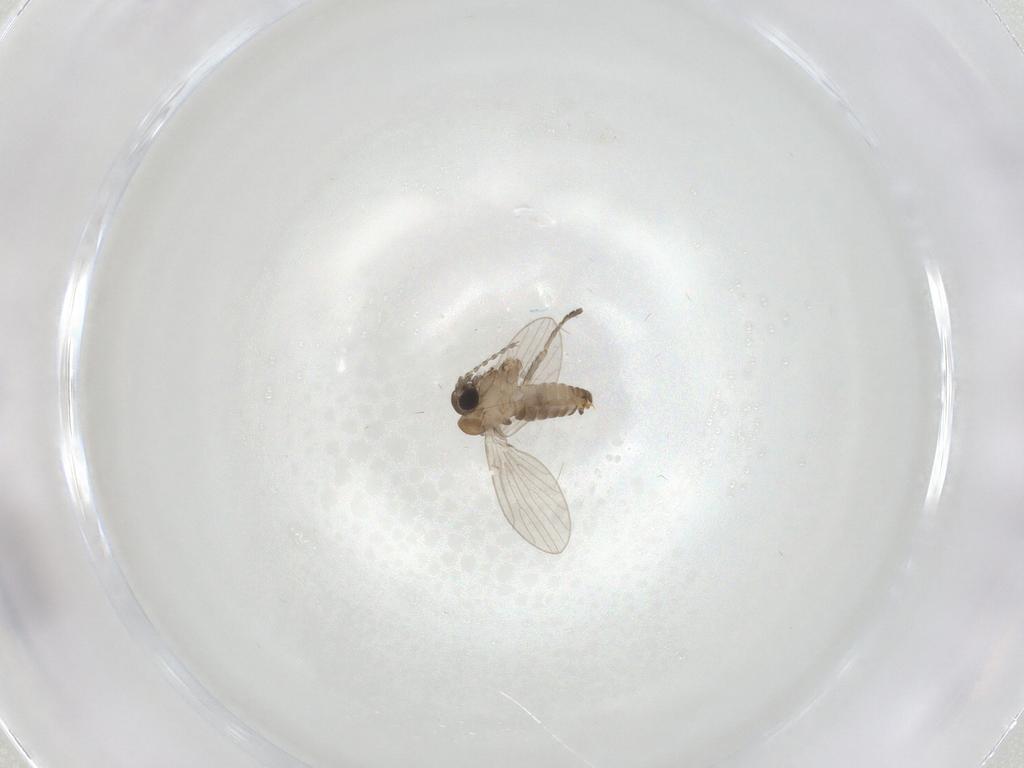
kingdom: Animalia
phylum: Arthropoda
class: Insecta
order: Diptera
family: Chironomidae
